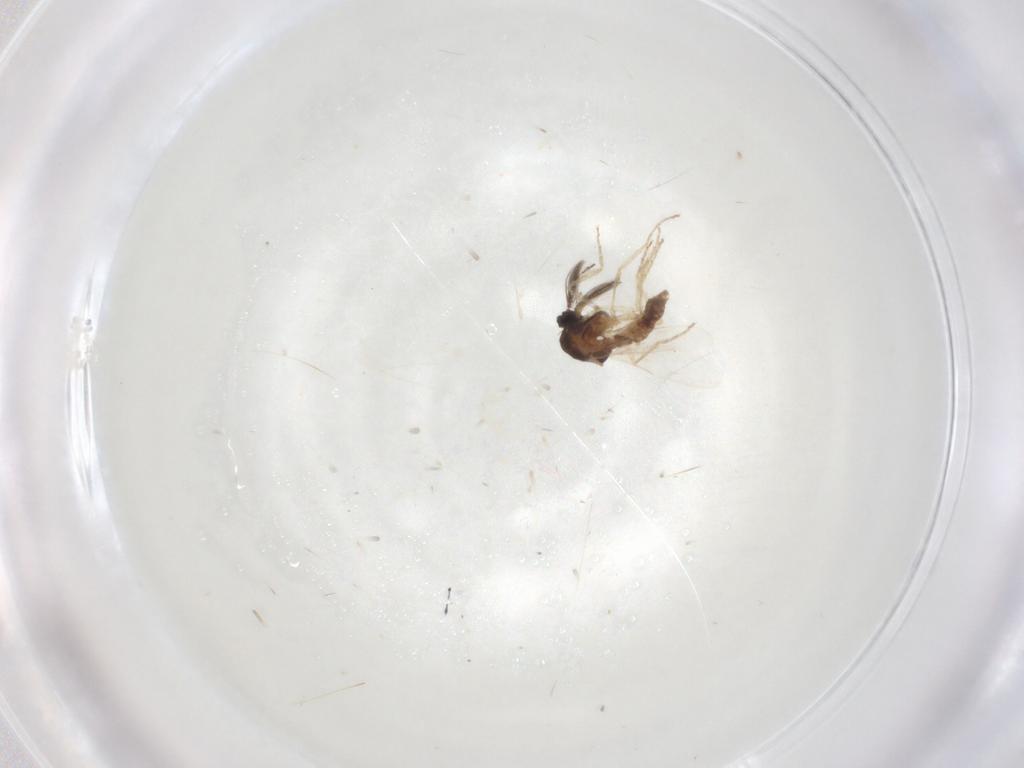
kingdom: Animalia
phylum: Arthropoda
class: Insecta
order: Diptera
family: Ceratopogonidae
